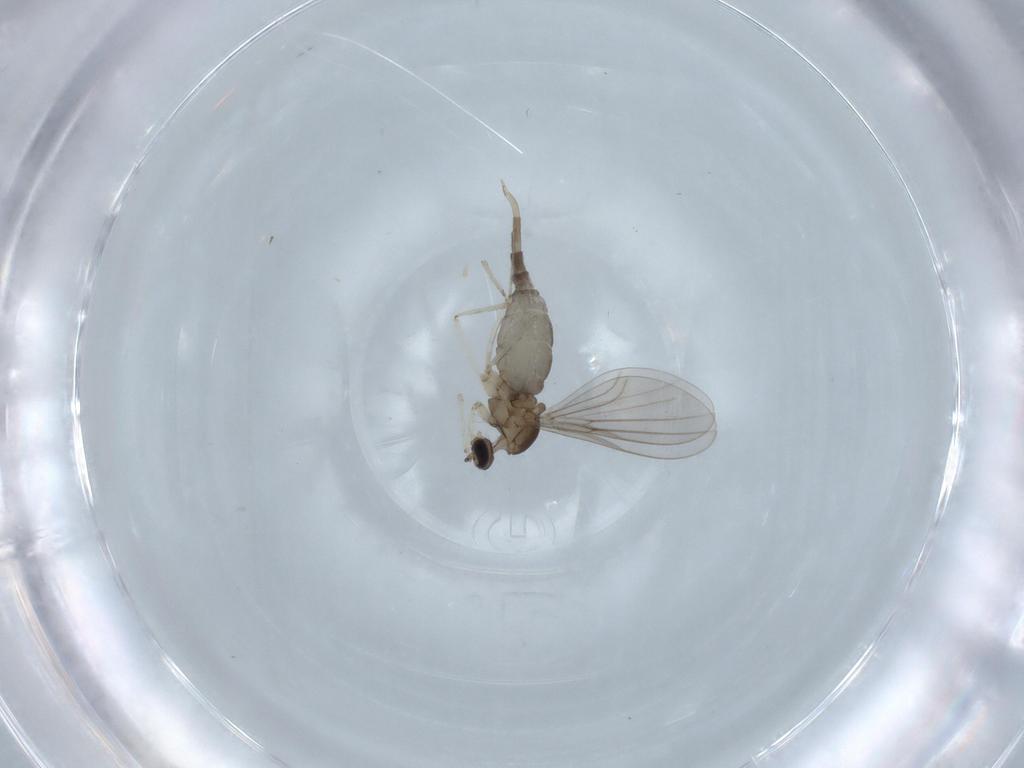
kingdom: Animalia
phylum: Arthropoda
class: Insecta
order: Diptera
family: Cecidomyiidae
